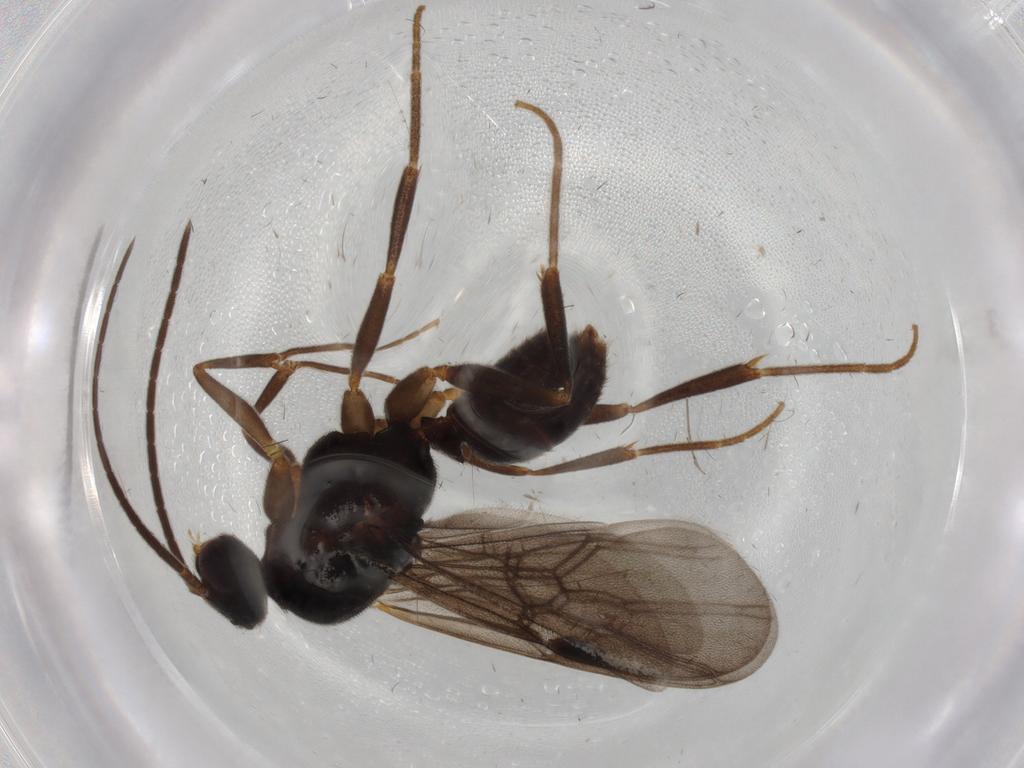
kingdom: Animalia
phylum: Arthropoda
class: Insecta
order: Hymenoptera
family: Formicidae
